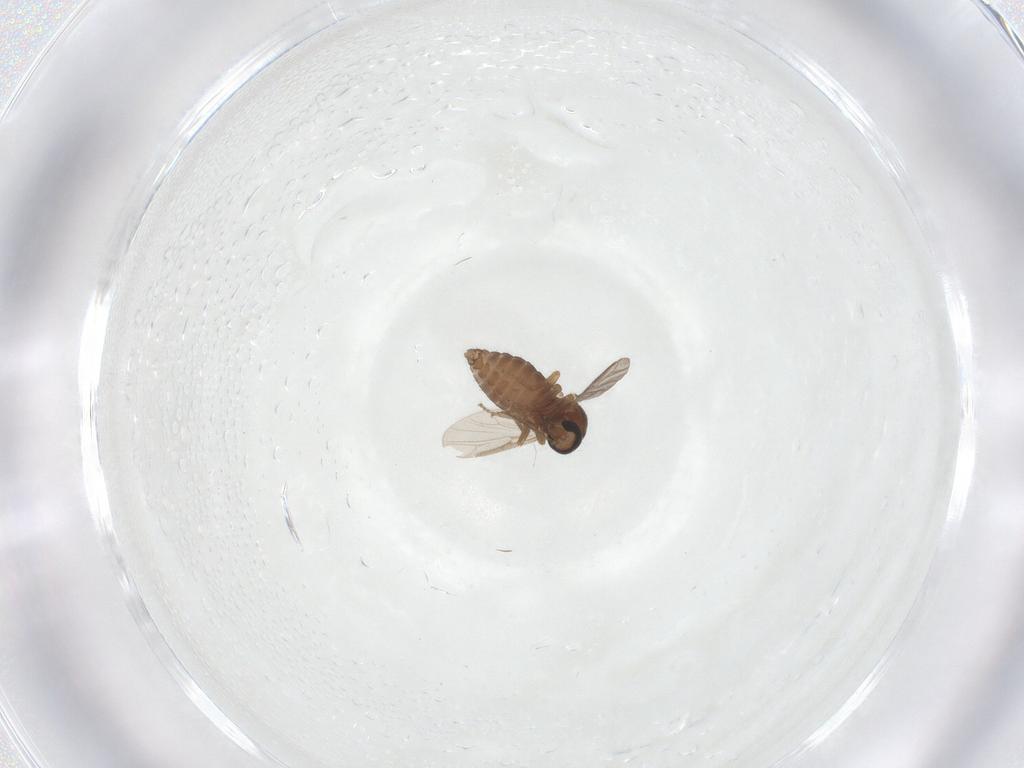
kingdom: Animalia
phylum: Arthropoda
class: Insecta
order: Diptera
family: Ceratopogonidae
